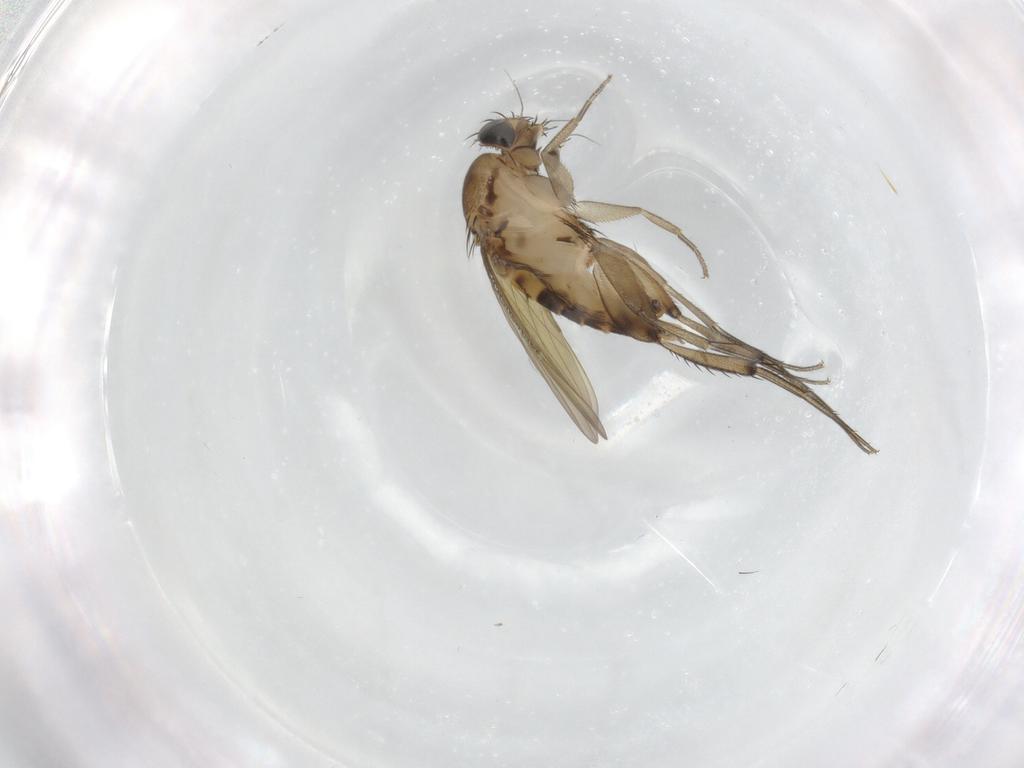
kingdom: Animalia
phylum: Arthropoda
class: Insecta
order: Diptera
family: Phoridae
